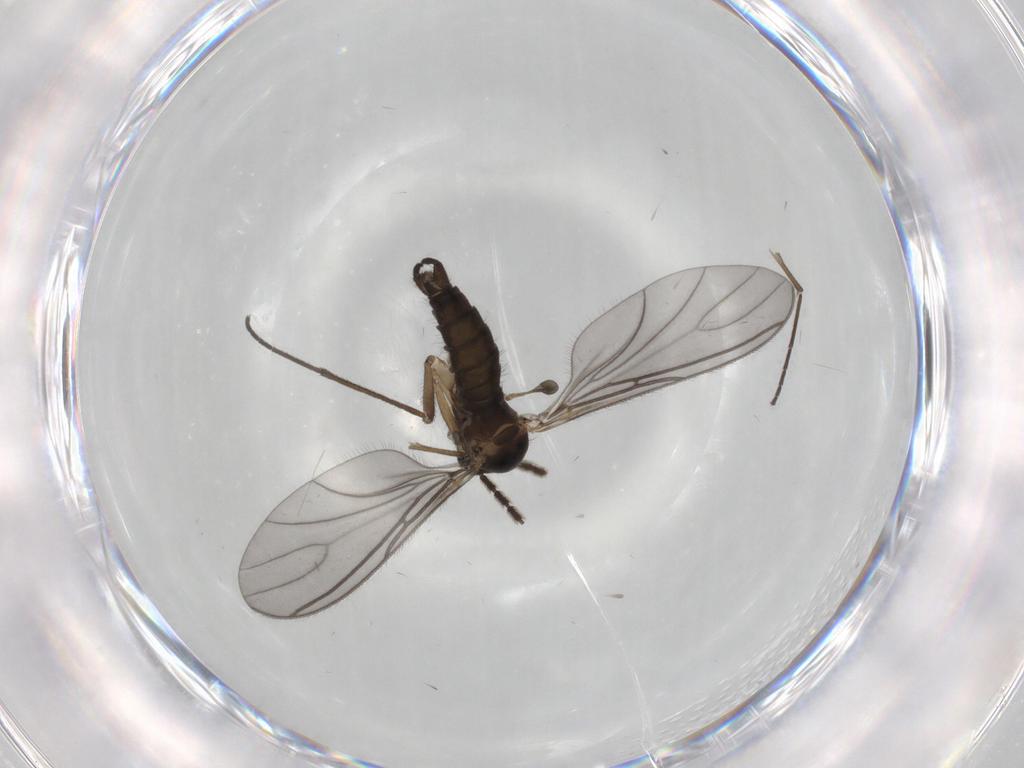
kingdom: Animalia
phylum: Arthropoda
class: Insecta
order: Diptera
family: Sciaridae
